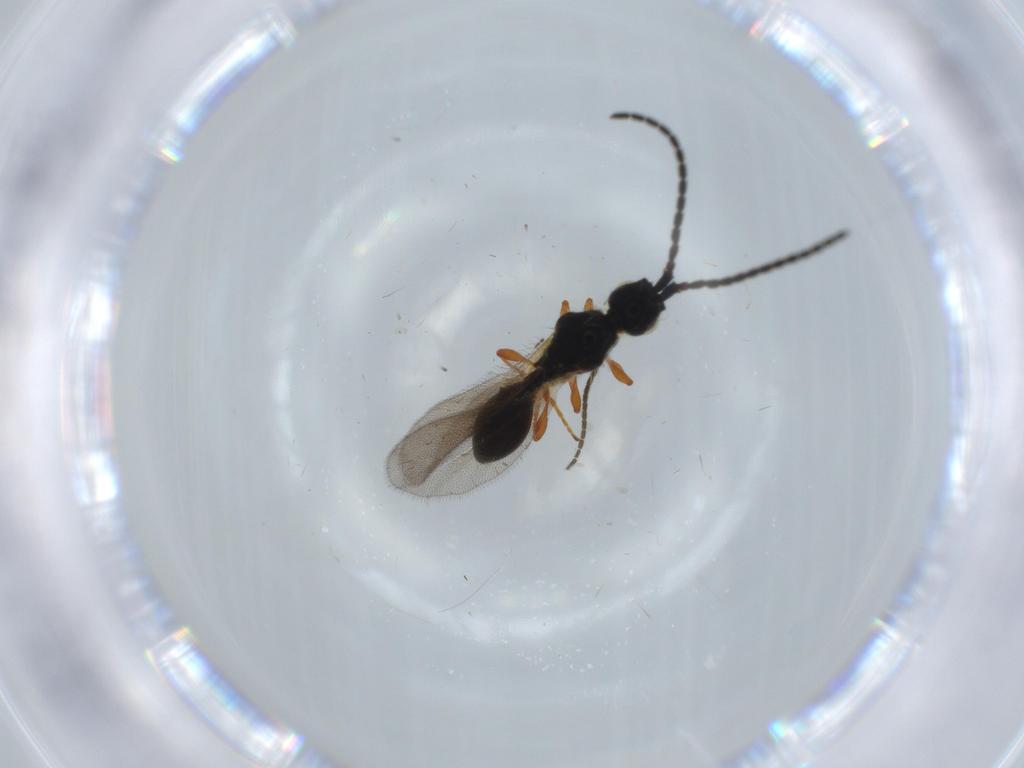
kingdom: Animalia
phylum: Arthropoda
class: Insecta
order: Hymenoptera
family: Diapriidae
